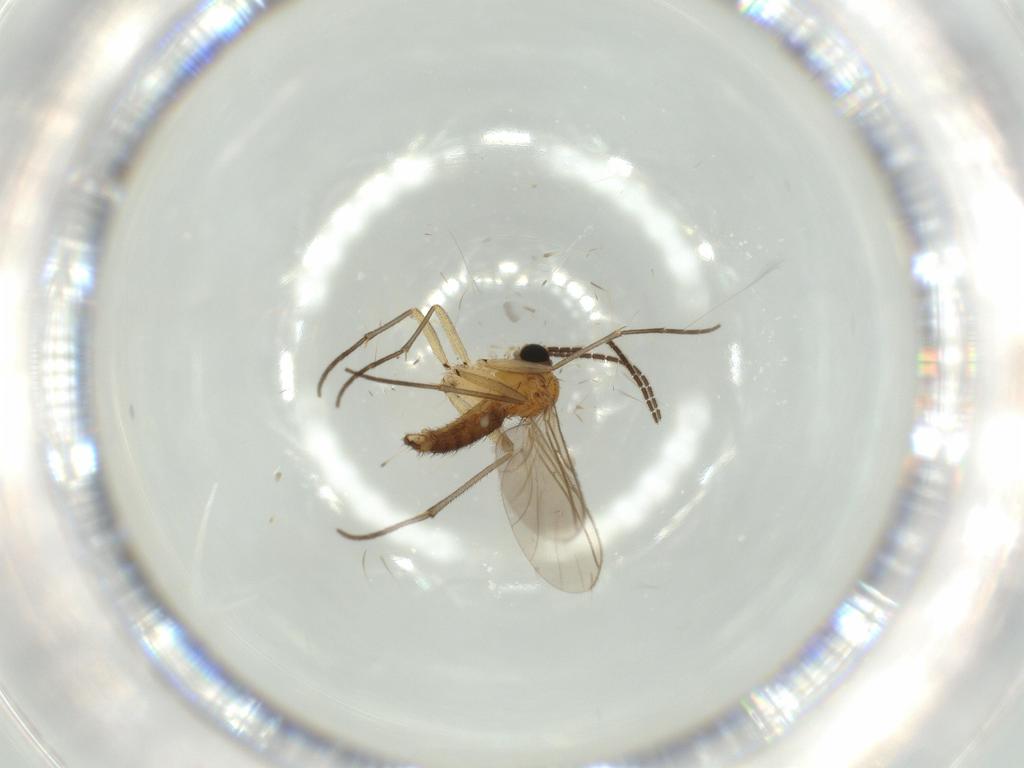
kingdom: Animalia
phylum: Arthropoda
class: Insecta
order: Diptera
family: Sciaridae
